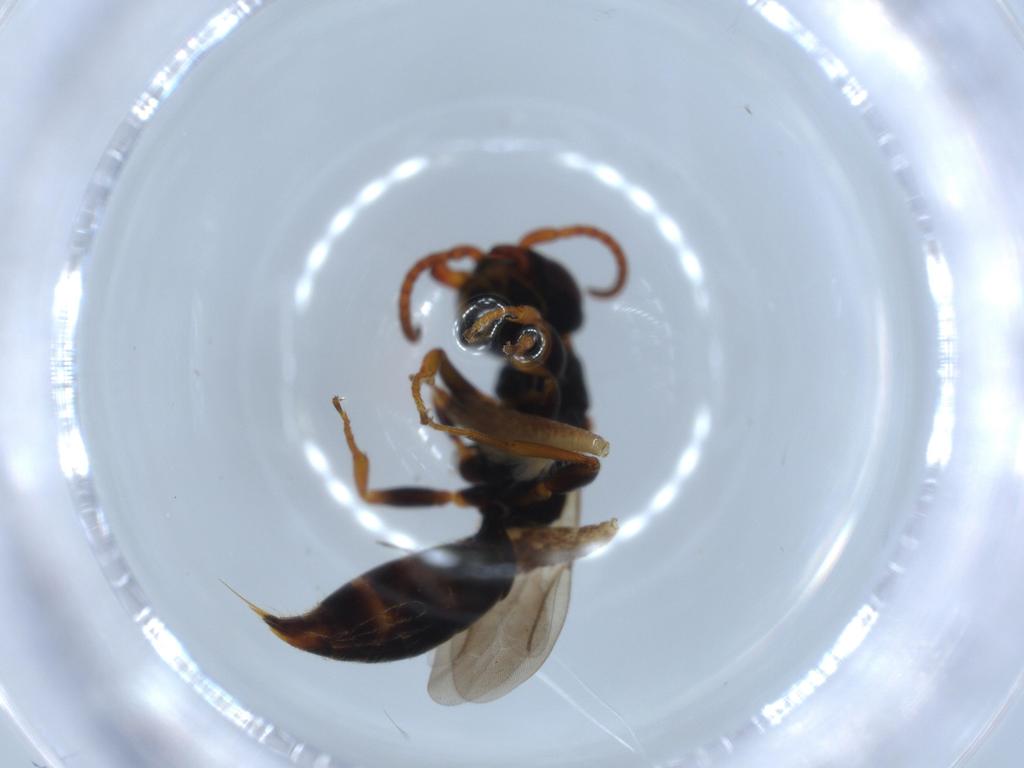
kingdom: Animalia
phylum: Arthropoda
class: Insecta
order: Hymenoptera
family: Bethylidae
